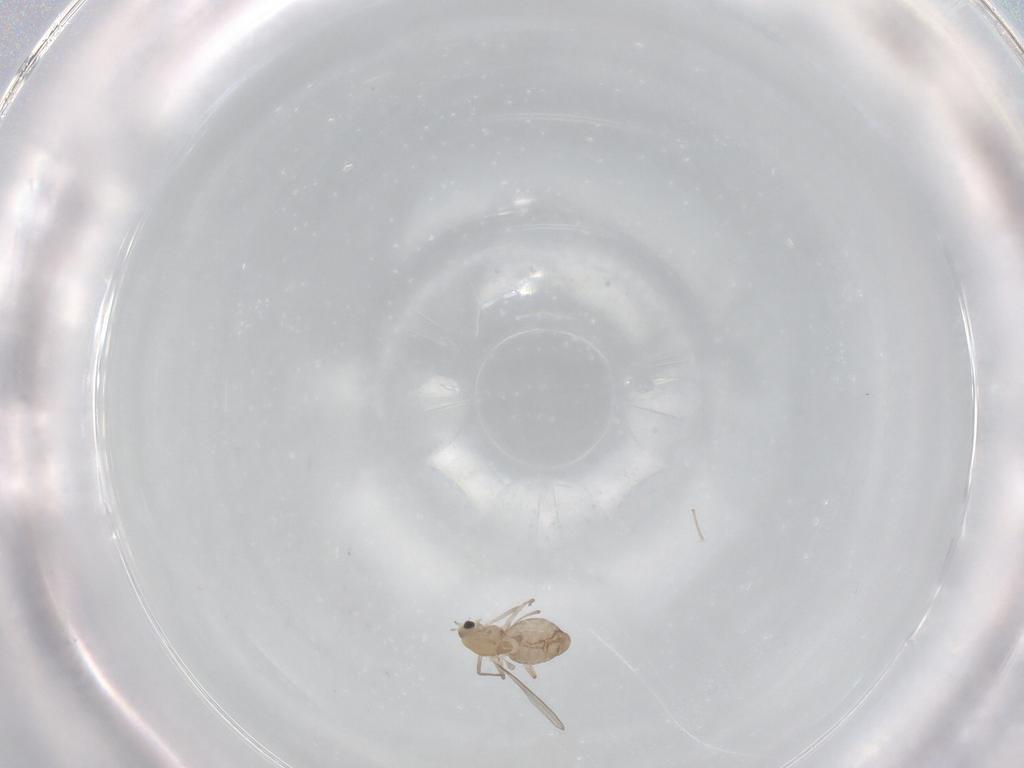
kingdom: Animalia
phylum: Arthropoda
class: Insecta
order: Diptera
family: Chironomidae
